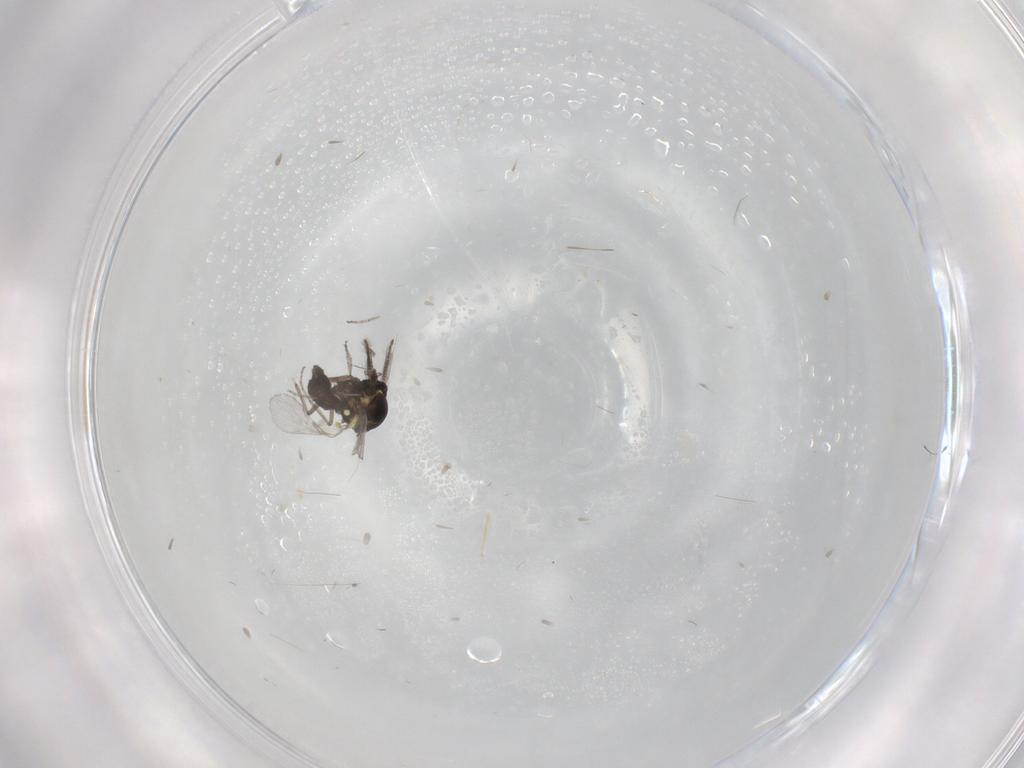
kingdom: Animalia
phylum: Arthropoda
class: Insecta
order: Diptera
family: Ceratopogonidae
